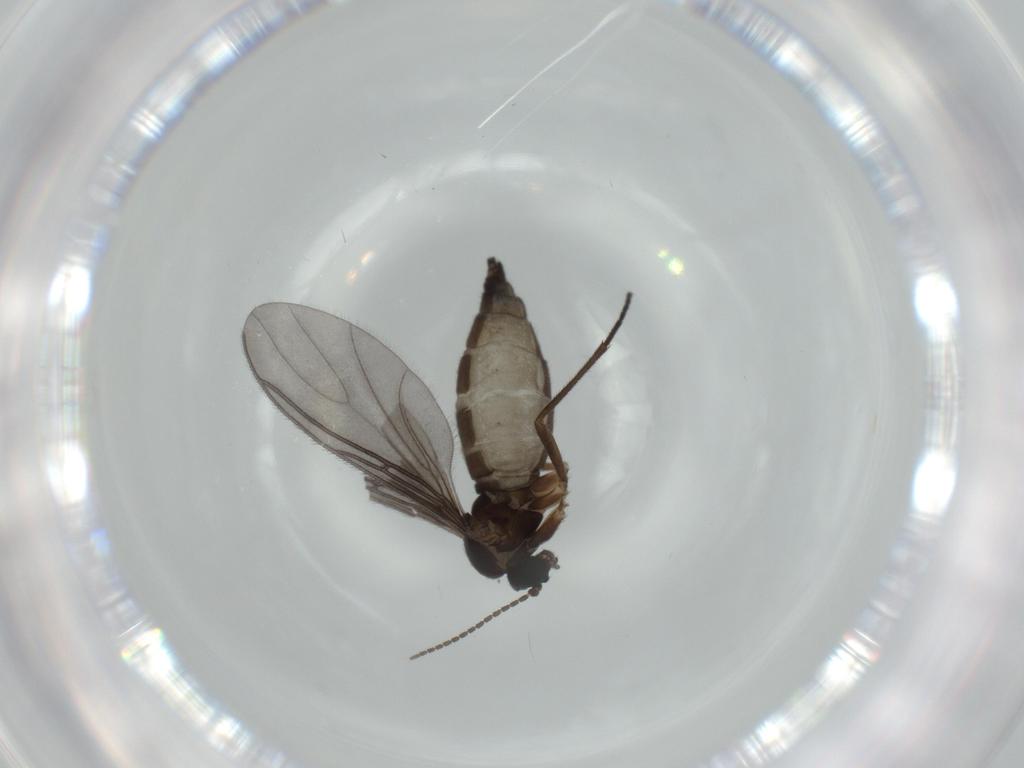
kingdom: Animalia
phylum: Arthropoda
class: Insecta
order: Diptera
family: Sciaridae
